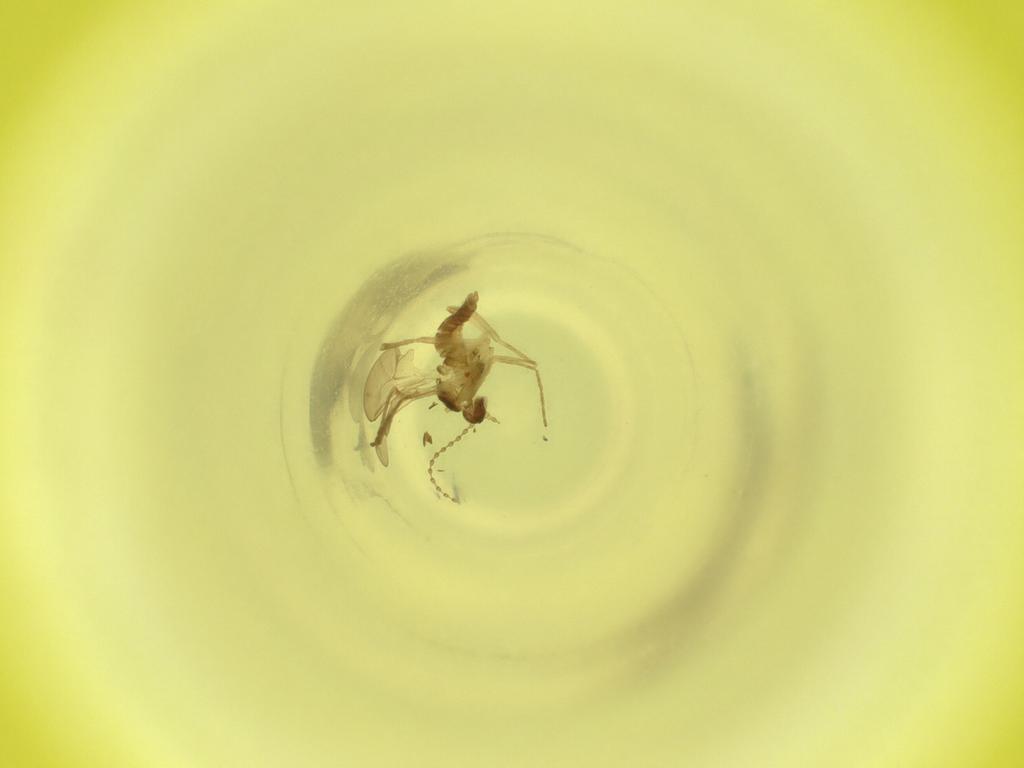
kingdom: Animalia
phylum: Arthropoda
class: Insecta
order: Diptera
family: Cecidomyiidae
